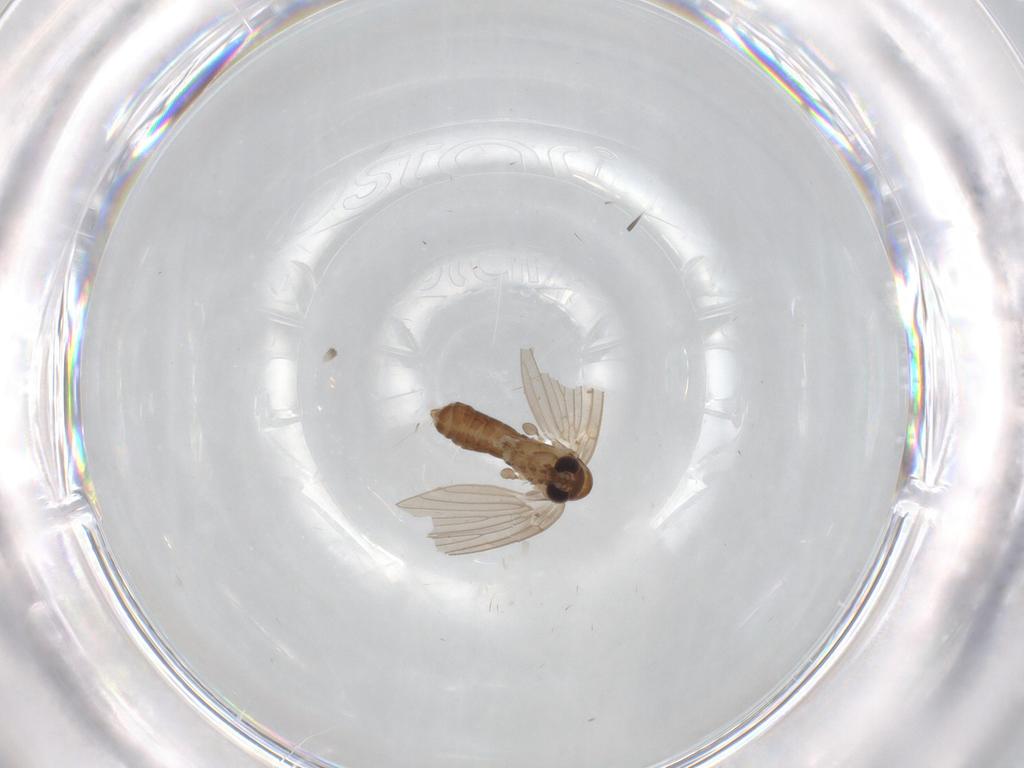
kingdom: Animalia
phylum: Arthropoda
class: Insecta
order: Diptera
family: Psychodidae
